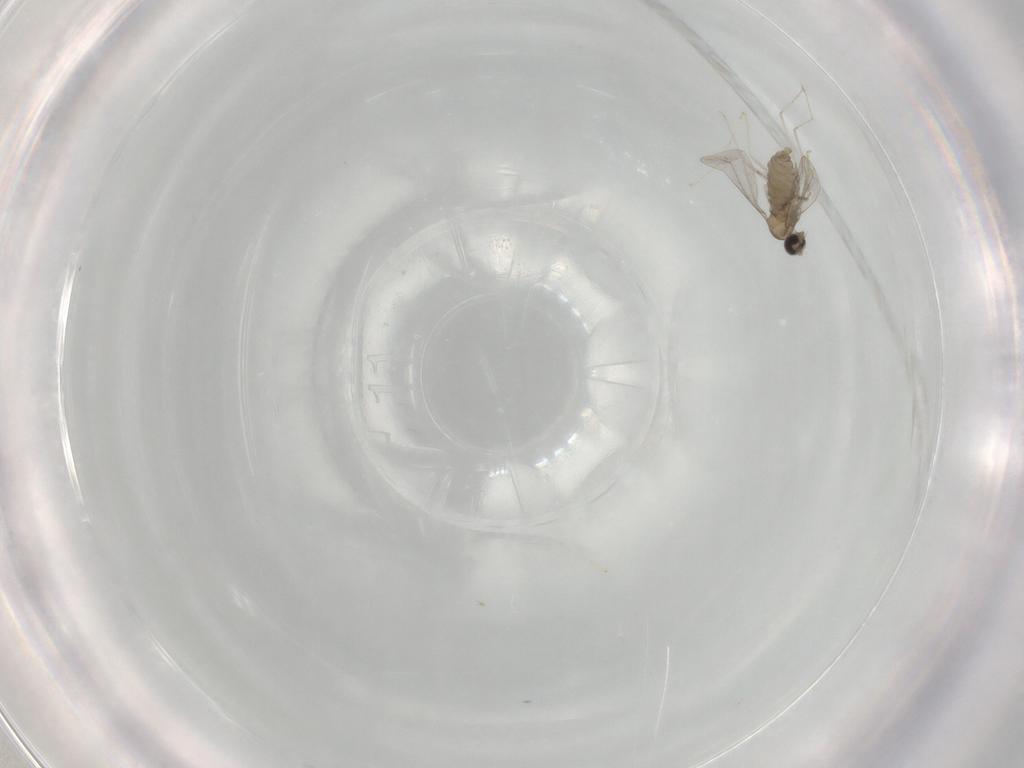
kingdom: Animalia
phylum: Arthropoda
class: Insecta
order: Diptera
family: Cecidomyiidae
